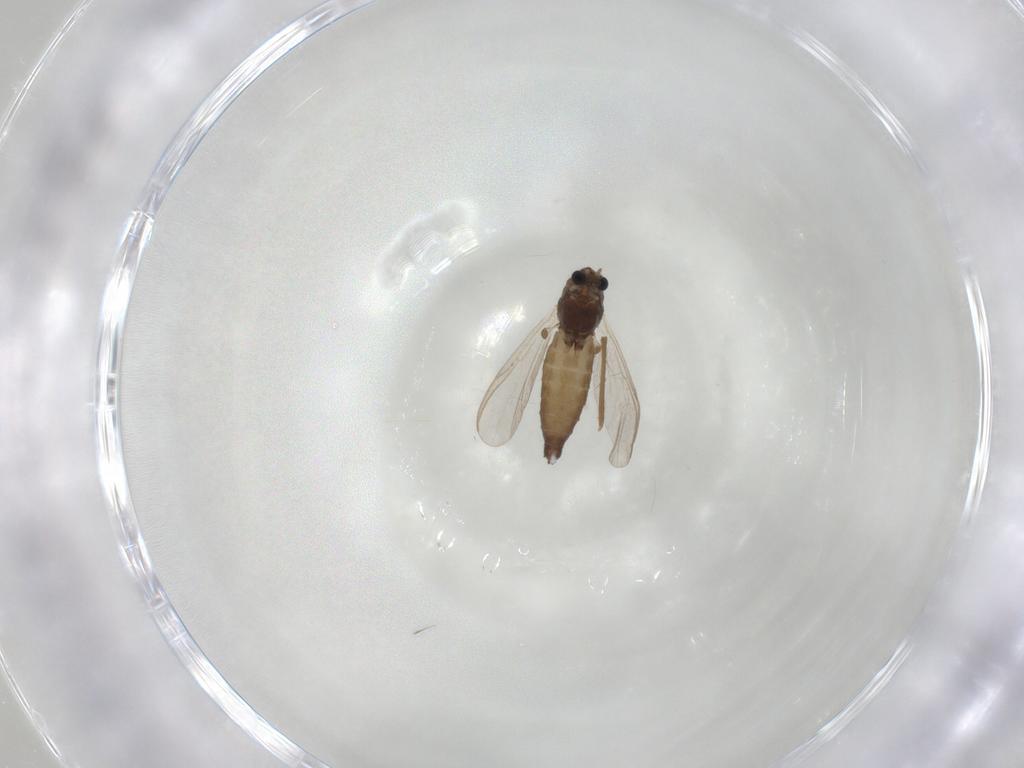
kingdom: Animalia
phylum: Arthropoda
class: Insecta
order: Diptera
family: Chironomidae
